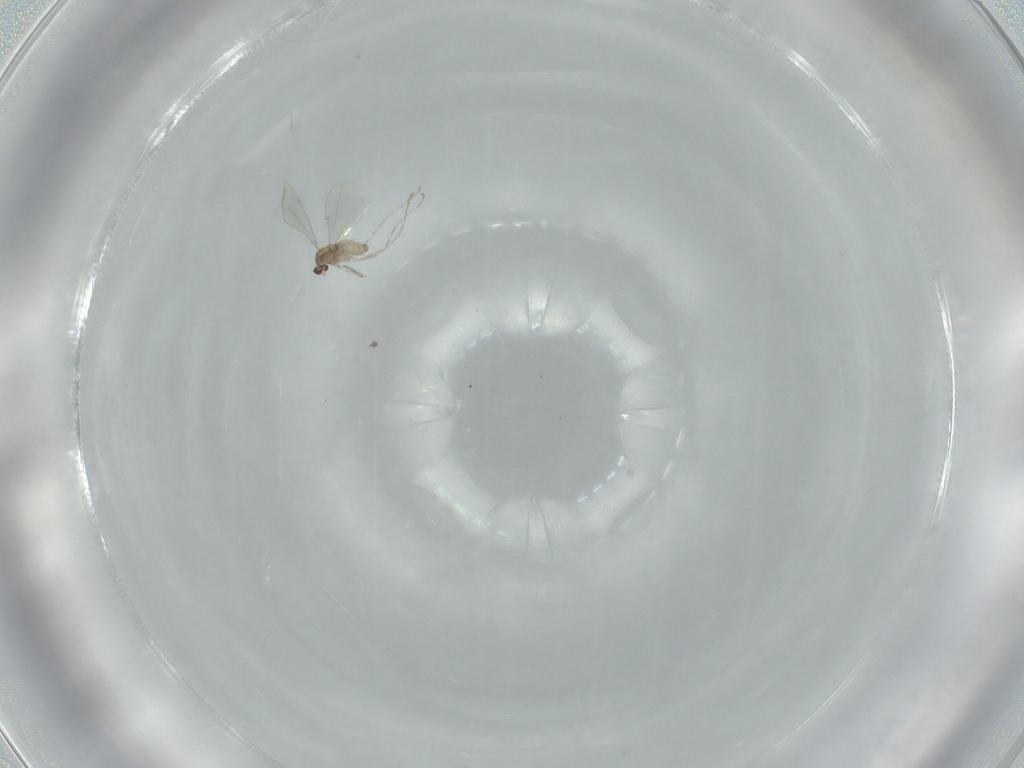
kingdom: Animalia
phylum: Arthropoda
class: Insecta
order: Diptera
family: Cecidomyiidae
